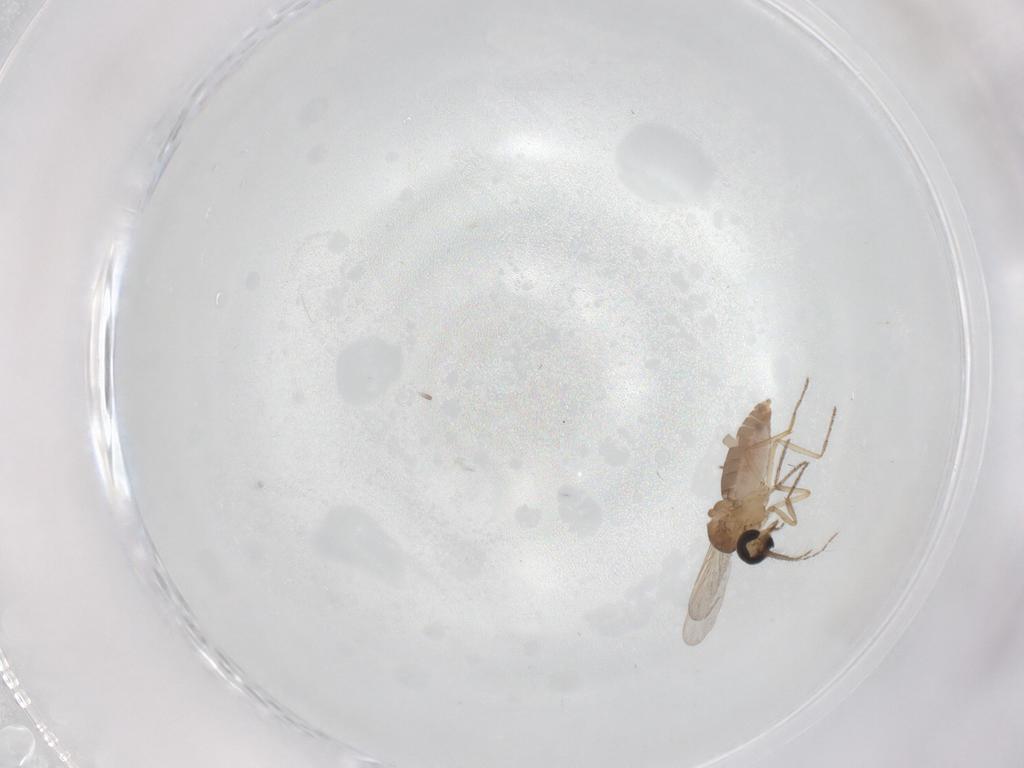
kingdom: Animalia
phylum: Arthropoda
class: Insecta
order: Diptera
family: Ceratopogonidae
